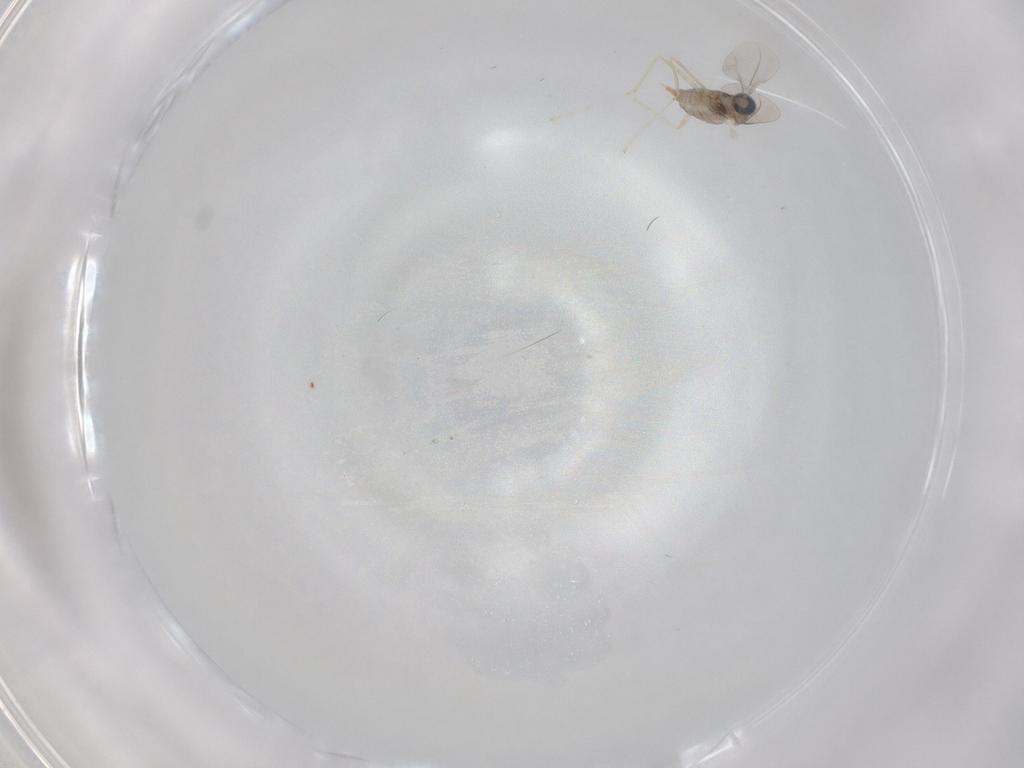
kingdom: Animalia
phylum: Arthropoda
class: Insecta
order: Diptera
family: Cecidomyiidae
